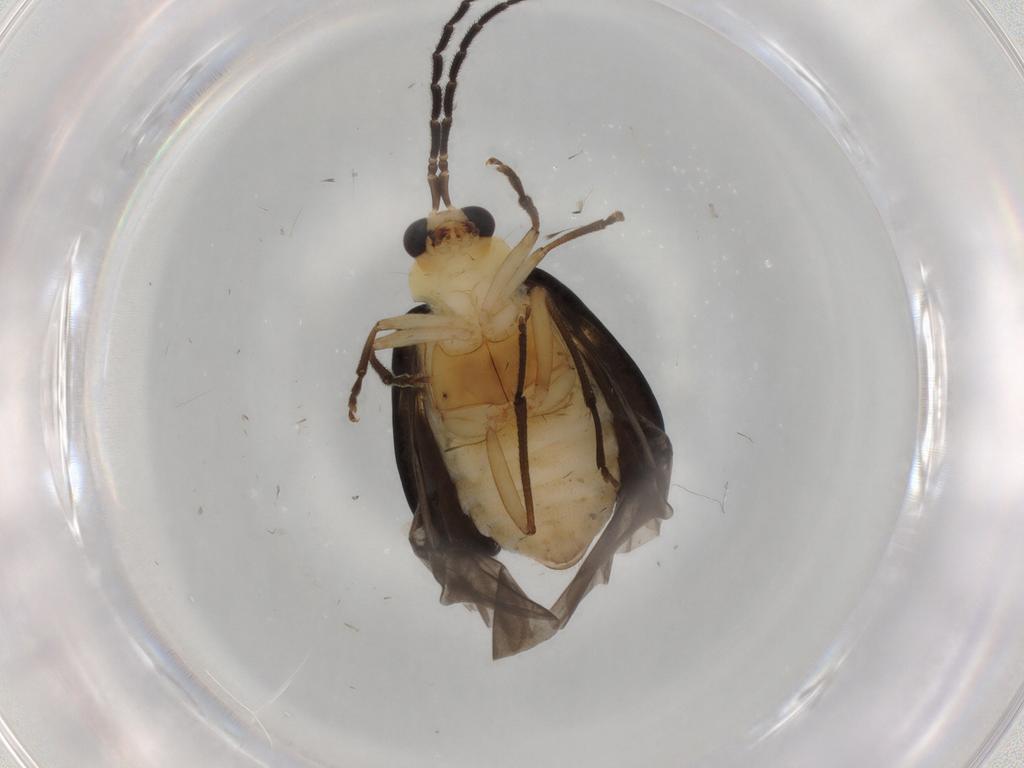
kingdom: Animalia
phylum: Arthropoda
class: Insecta
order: Coleoptera
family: Chrysomelidae
